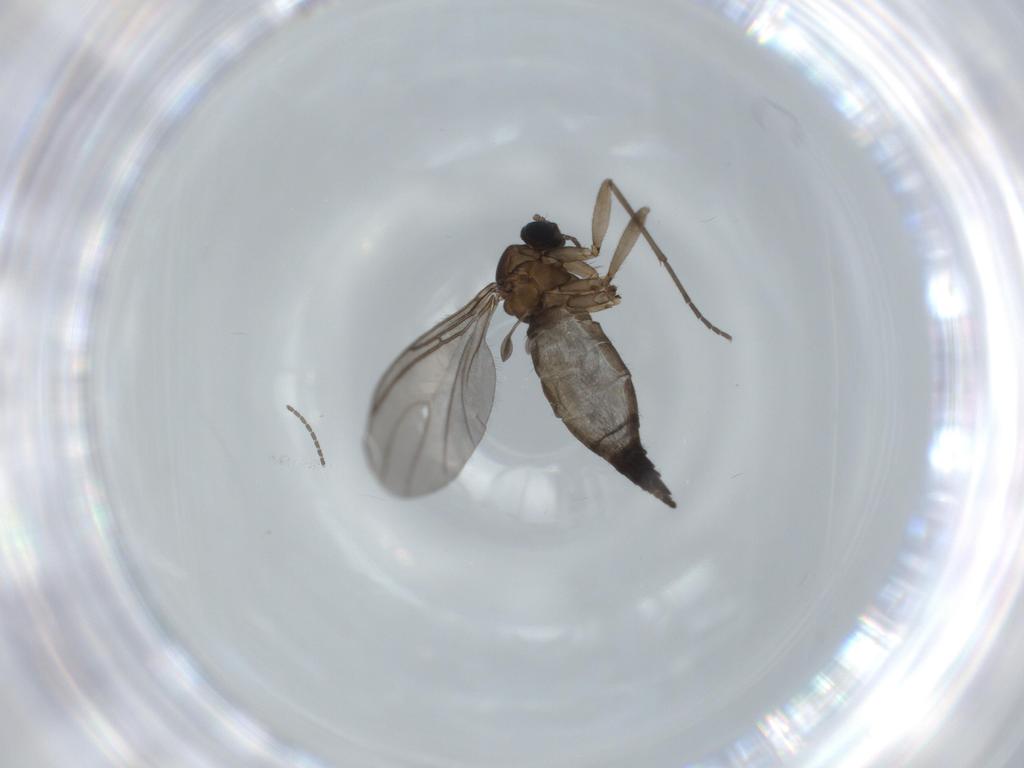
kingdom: Animalia
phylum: Arthropoda
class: Insecta
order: Diptera
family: Sciaridae
